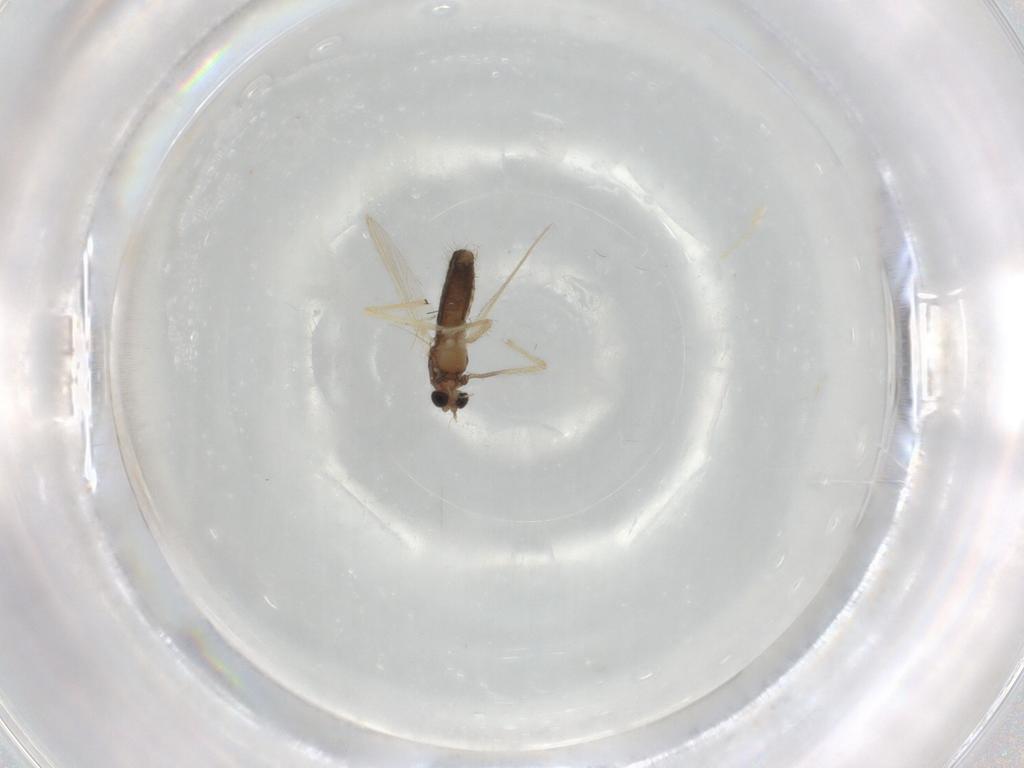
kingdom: Animalia
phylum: Arthropoda
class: Insecta
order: Diptera
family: Chironomidae
